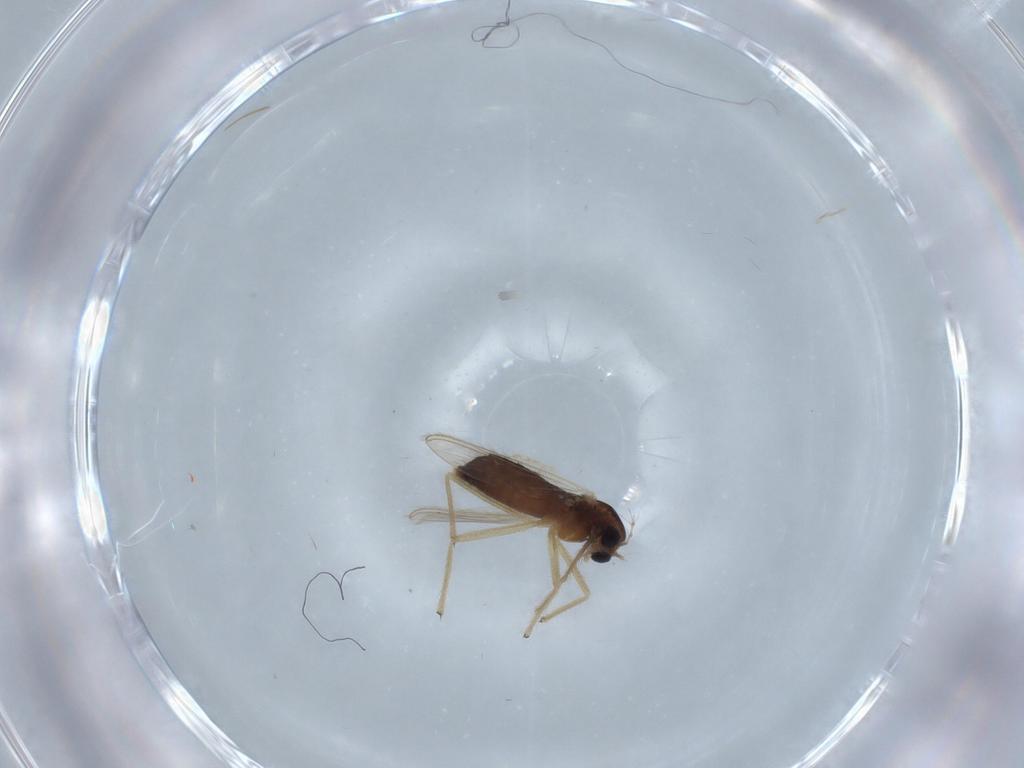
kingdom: Animalia
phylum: Arthropoda
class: Insecta
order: Diptera
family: Chironomidae
